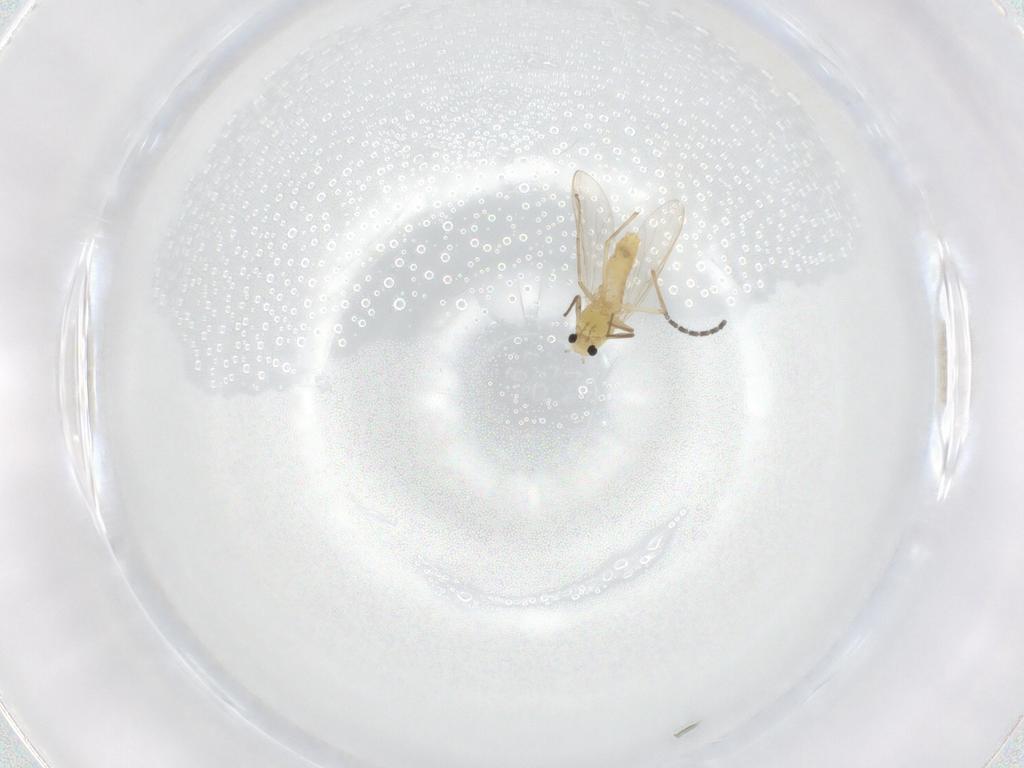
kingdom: Animalia
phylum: Arthropoda
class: Insecta
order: Diptera
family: Chironomidae
